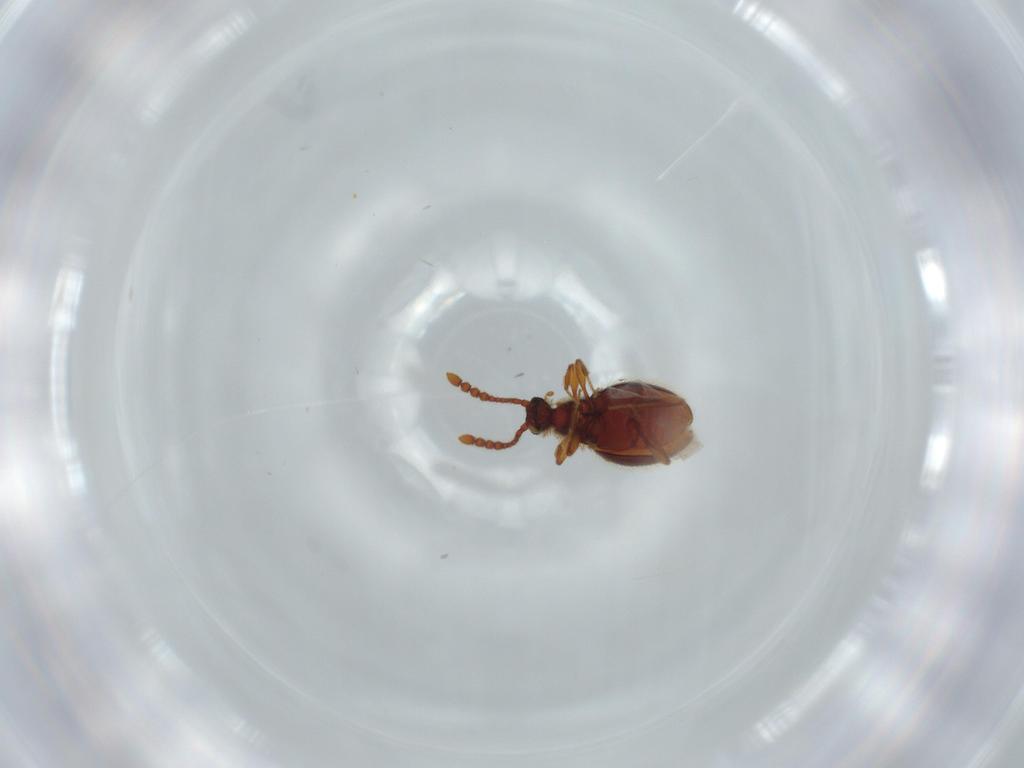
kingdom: Animalia
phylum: Arthropoda
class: Insecta
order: Coleoptera
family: Staphylinidae
